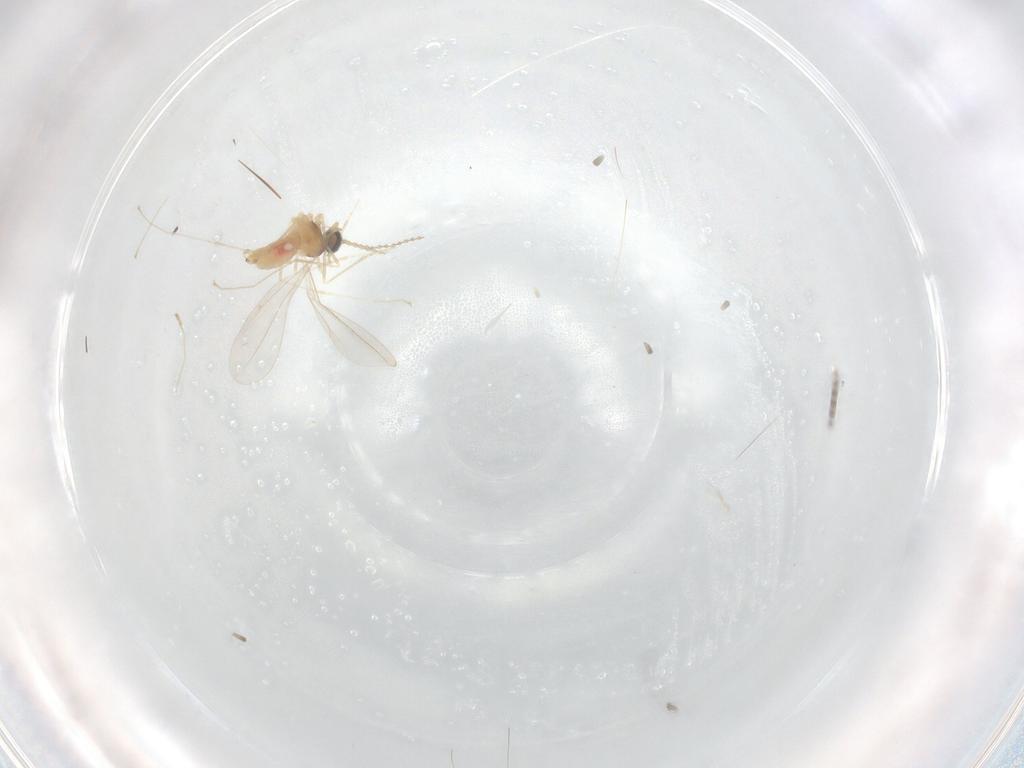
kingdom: Animalia
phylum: Arthropoda
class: Insecta
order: Diptera
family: Cecidomyiidae
